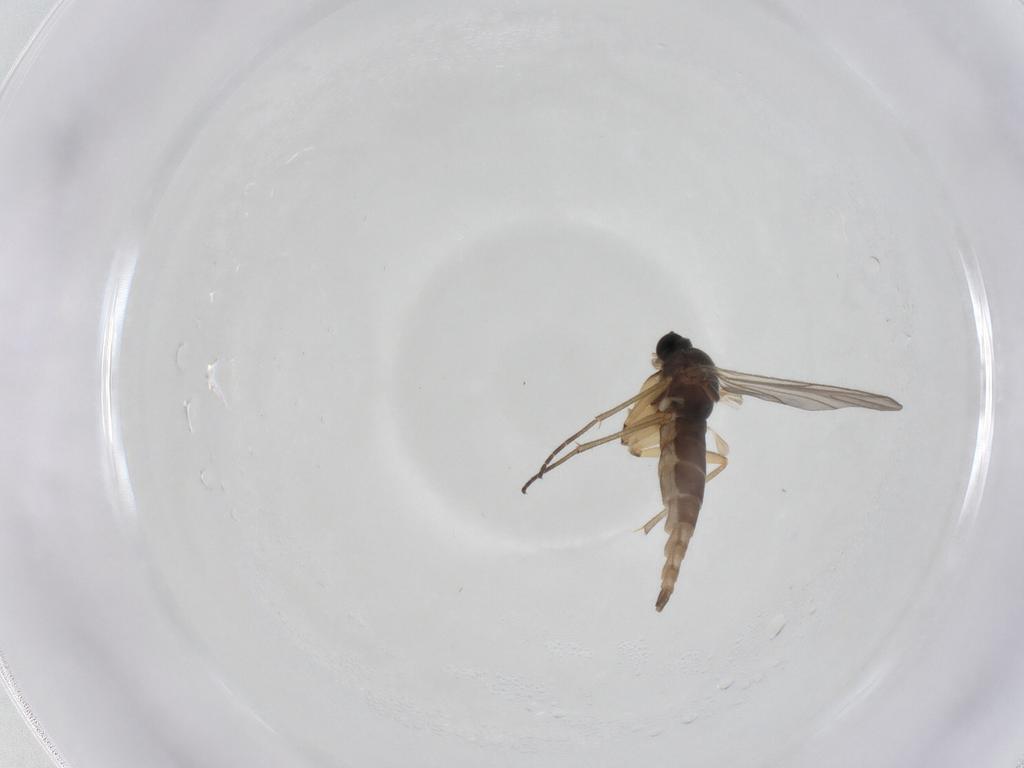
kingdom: Animalia
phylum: Arthropoda
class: Insecta
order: Diptera
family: Sciaridae
